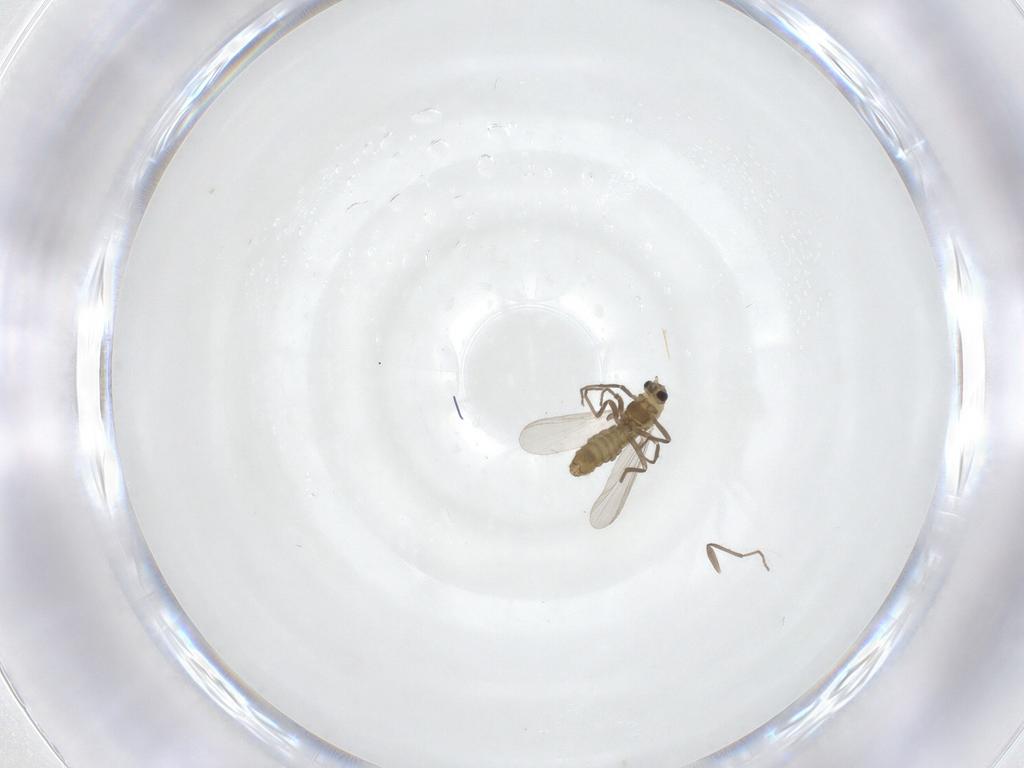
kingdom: Animalia
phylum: Arthropoda
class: Insecta
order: Diptera
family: Chironomidae
